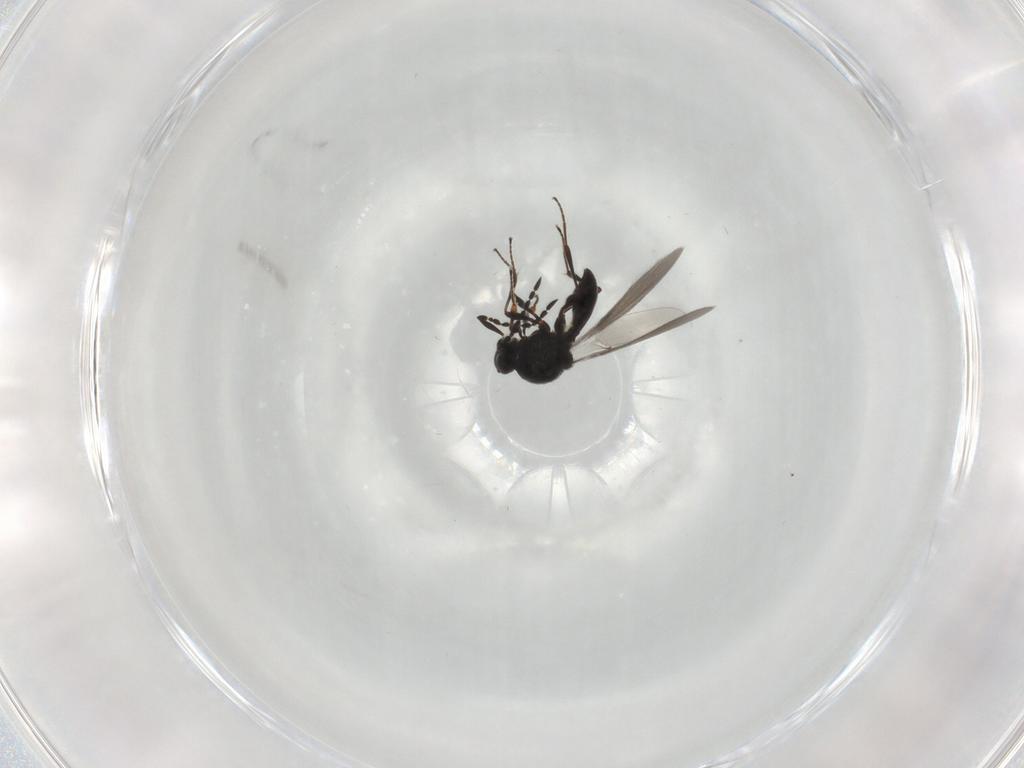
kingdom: Animalia
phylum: Arthropoda
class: Insecta
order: Hymenoptera
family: Platygastridae
